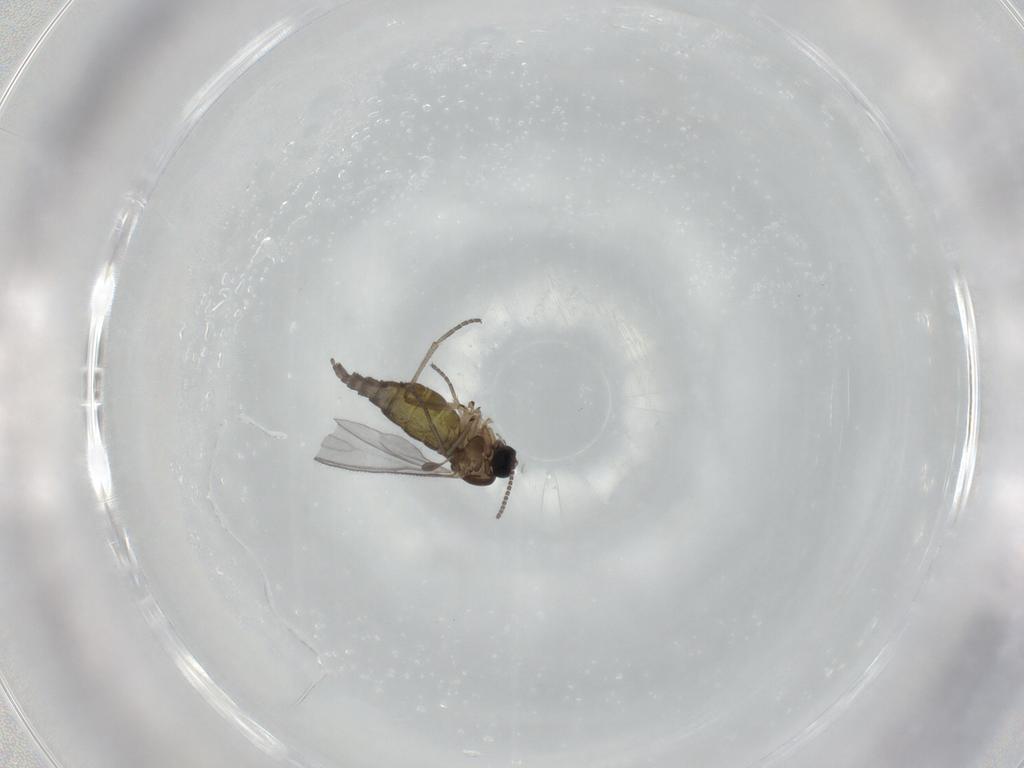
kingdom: Animalia
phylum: Arthropoda
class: Insecta
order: Diptera
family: Sciaridae
